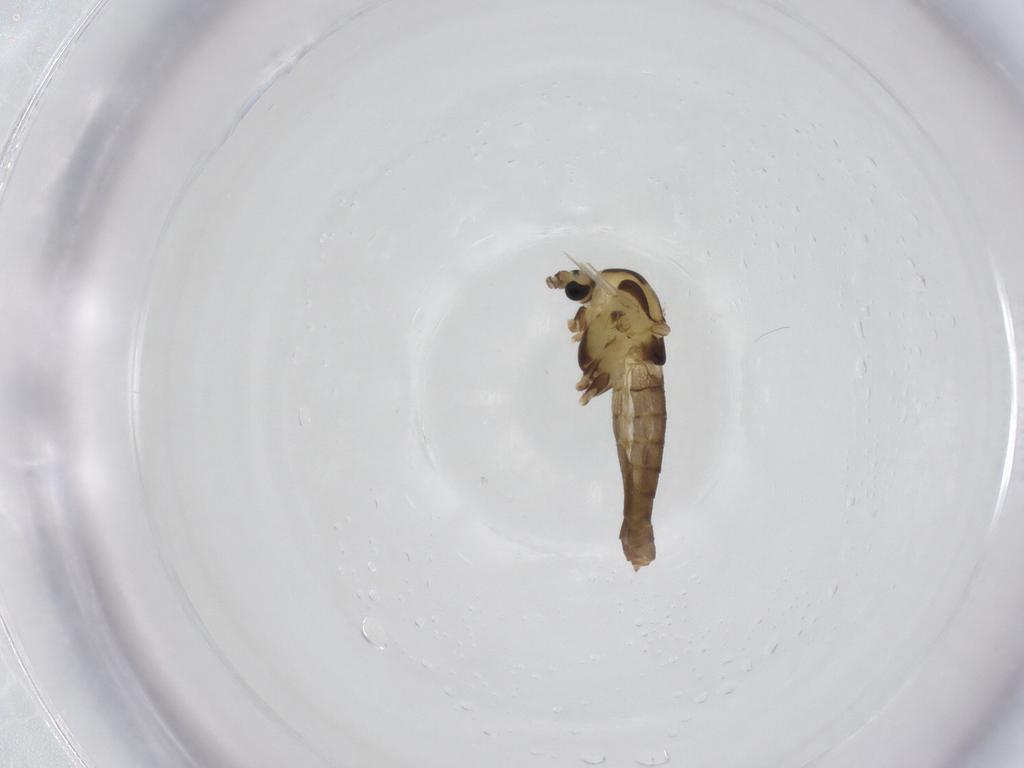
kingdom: Animalia
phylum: Arthropoda
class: Insecta
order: Diptera
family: Chironomidae
